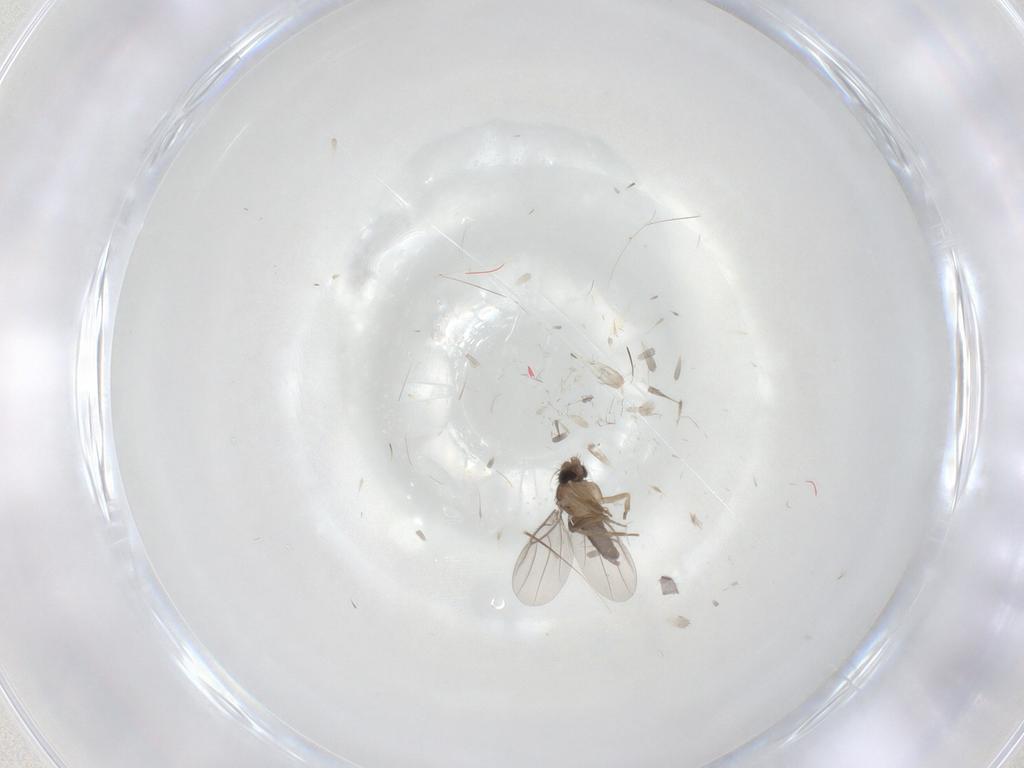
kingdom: Animalia
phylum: Arthropoda
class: Insecta
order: Diptera
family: Sciaridae
